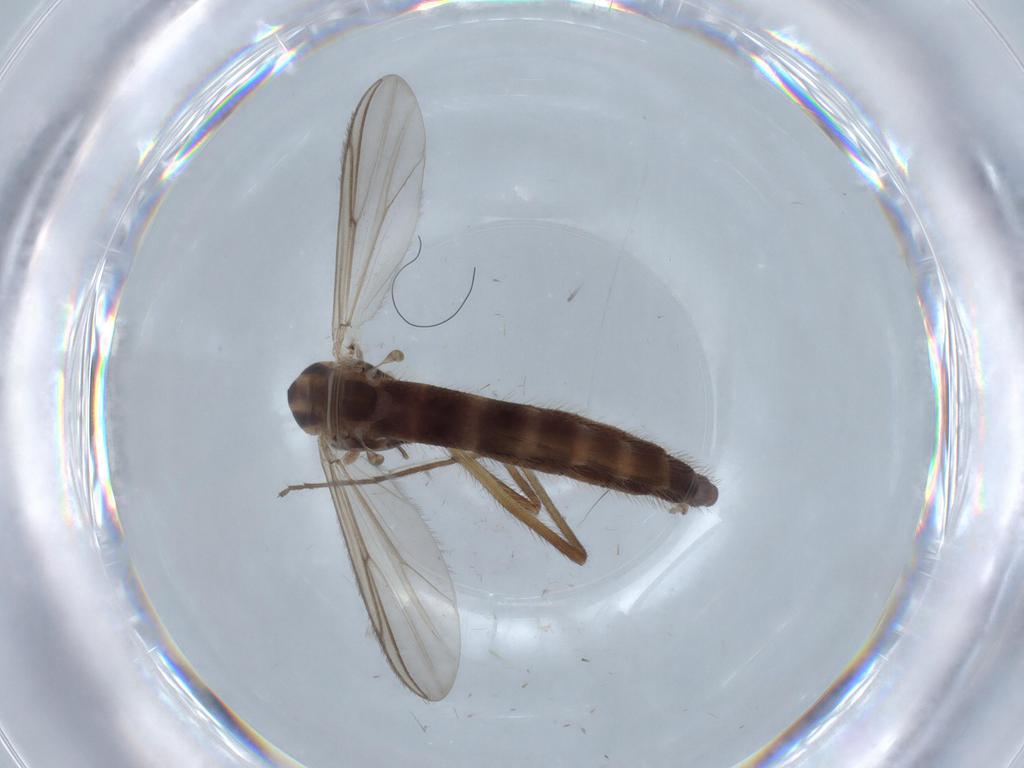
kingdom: Animalia
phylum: Arthropoda
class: Insecta
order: Diptera
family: Chironomidae
